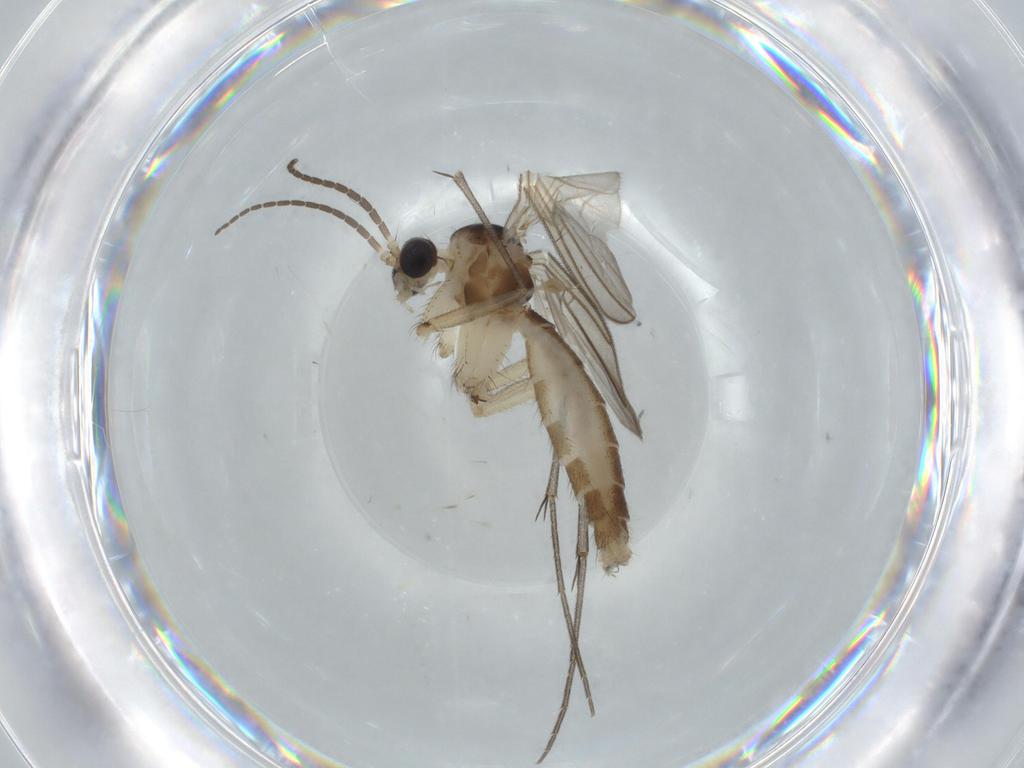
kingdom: Animalia
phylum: Arthropoda
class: Insecta
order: Diptera
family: Mycetophilidae
